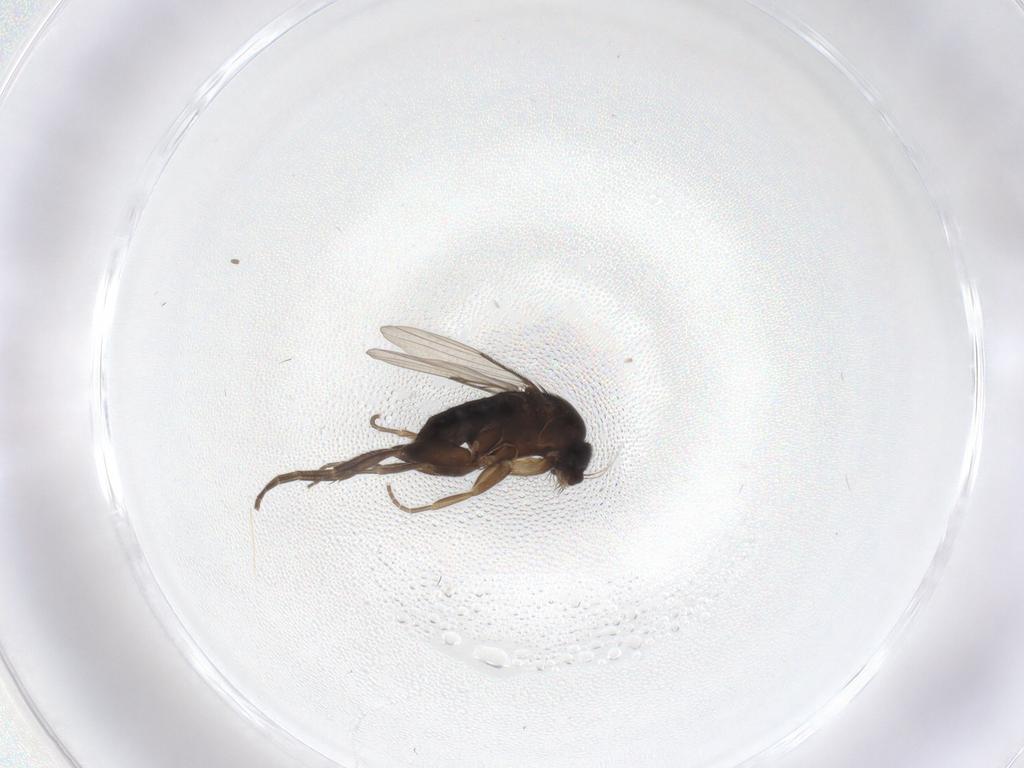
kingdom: Animalia
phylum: Arthropoda
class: Insecta
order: Diptera
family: Phoridae
